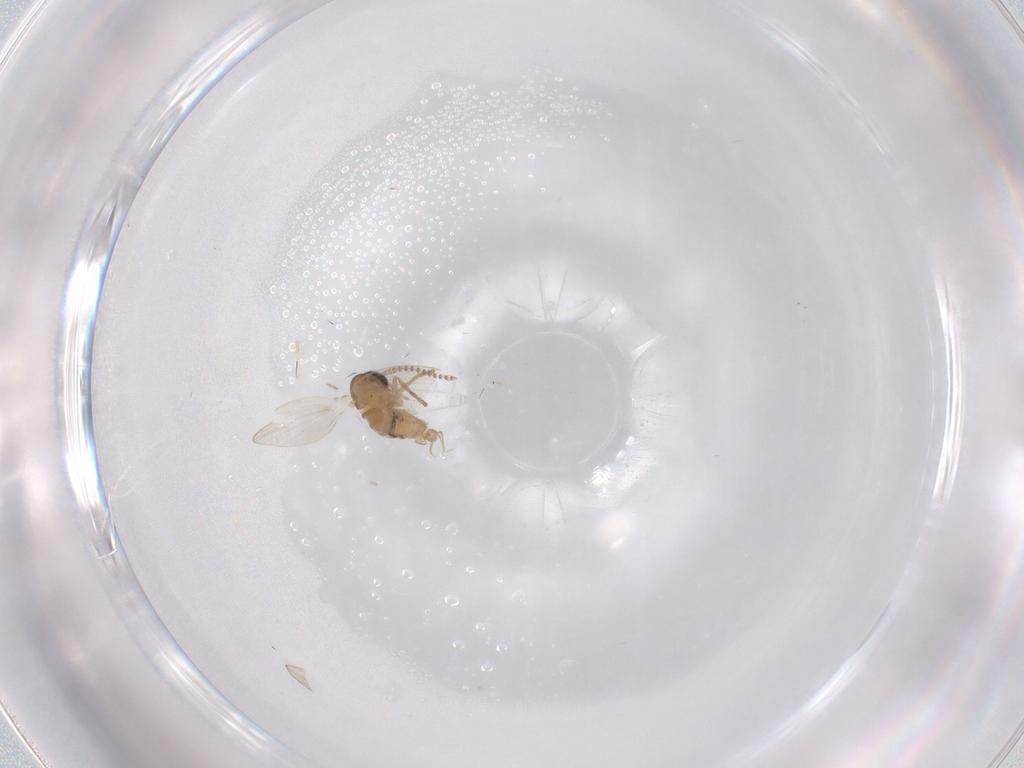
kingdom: Animalia
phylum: Arthropoda
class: Insecta
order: Diptera
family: Psychodidae
